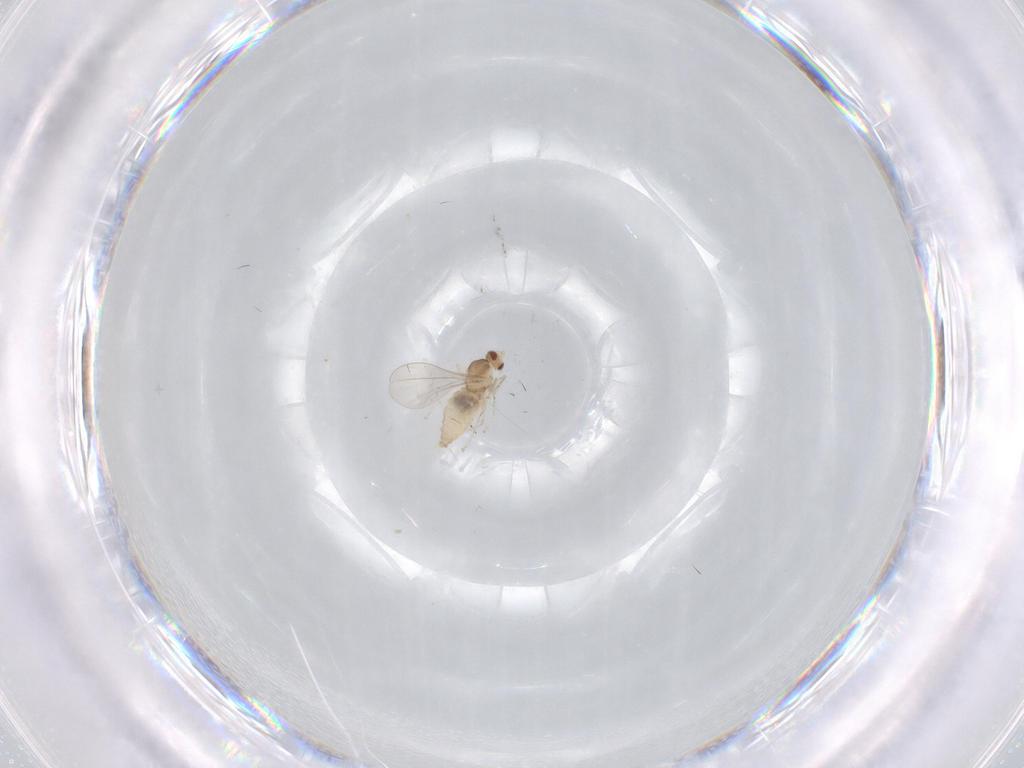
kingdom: Animalia
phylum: Arthropoda
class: Insecta
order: Diptera
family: Cecidomyiidae
